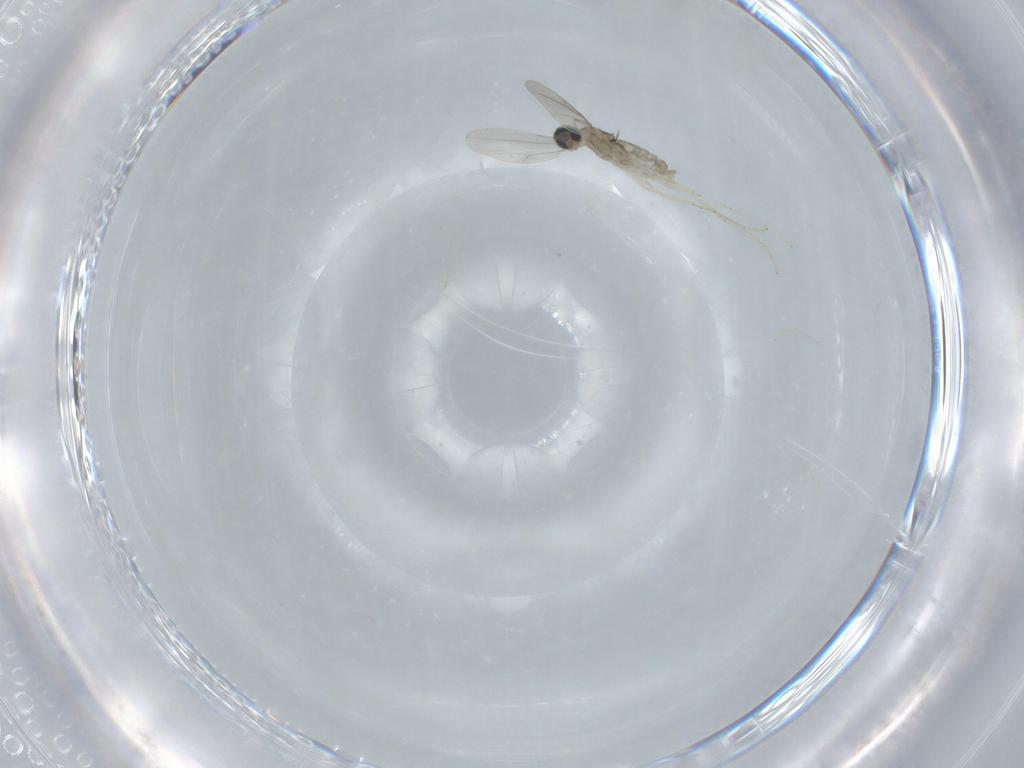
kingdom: Animalia
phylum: Arthropoda
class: Insecta
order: Diptera
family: Cecidomyiidae
